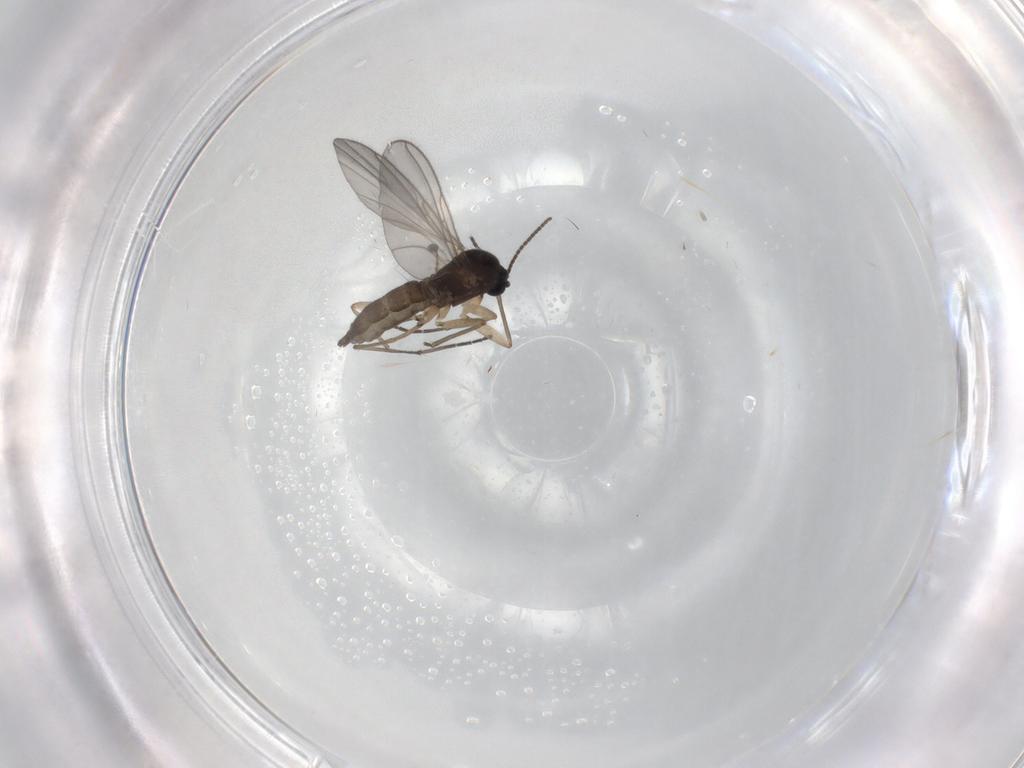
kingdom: Animalia
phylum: Arthropoda
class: Insecta
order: Diptera
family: Sciaridae
